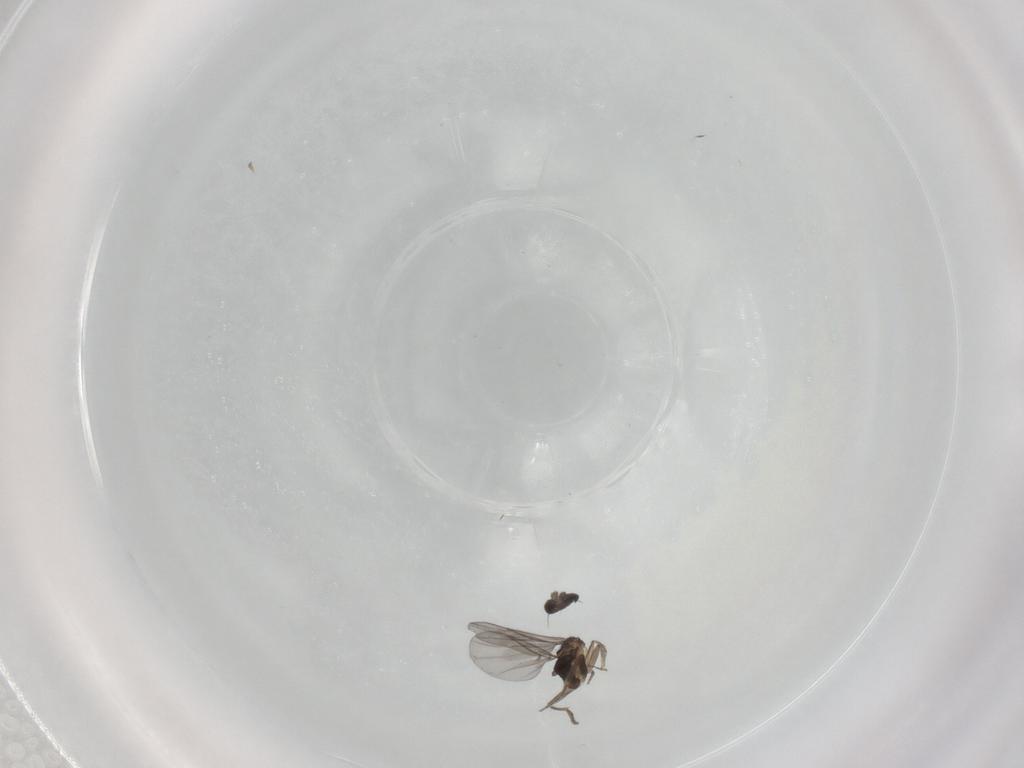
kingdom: Animalia
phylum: Arthropoda
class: Insecta
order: Diptera
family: Phoridae
